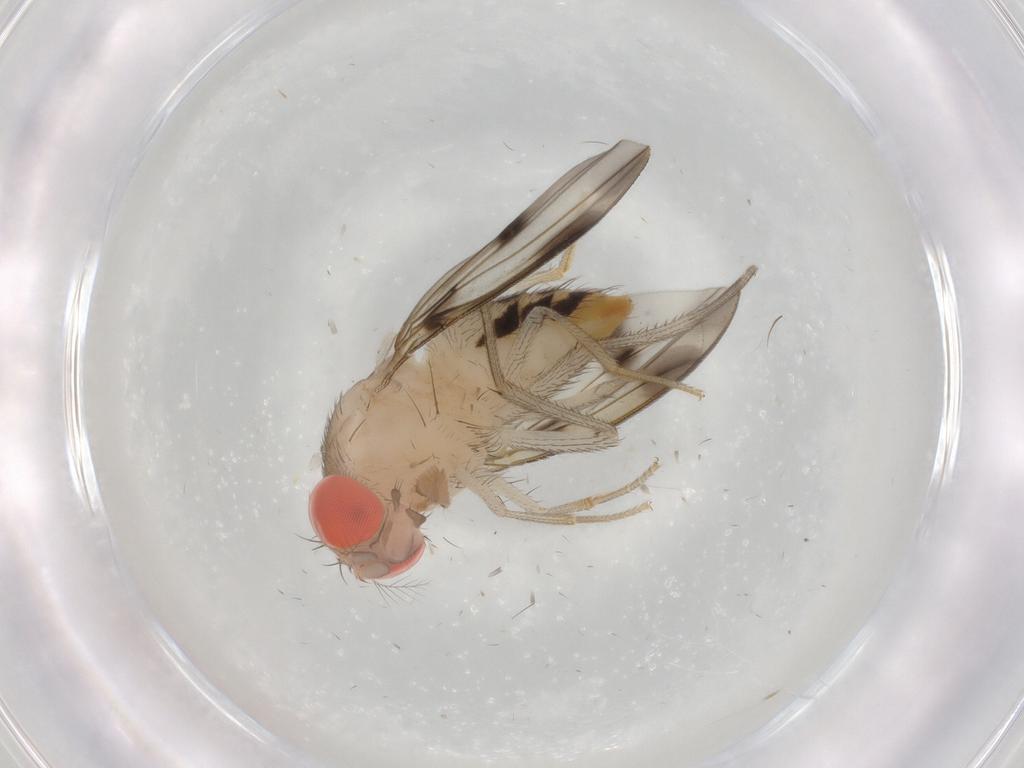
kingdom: Animalia
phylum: Arthropoda
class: Insecta
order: Diptera
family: Drosophilidae
